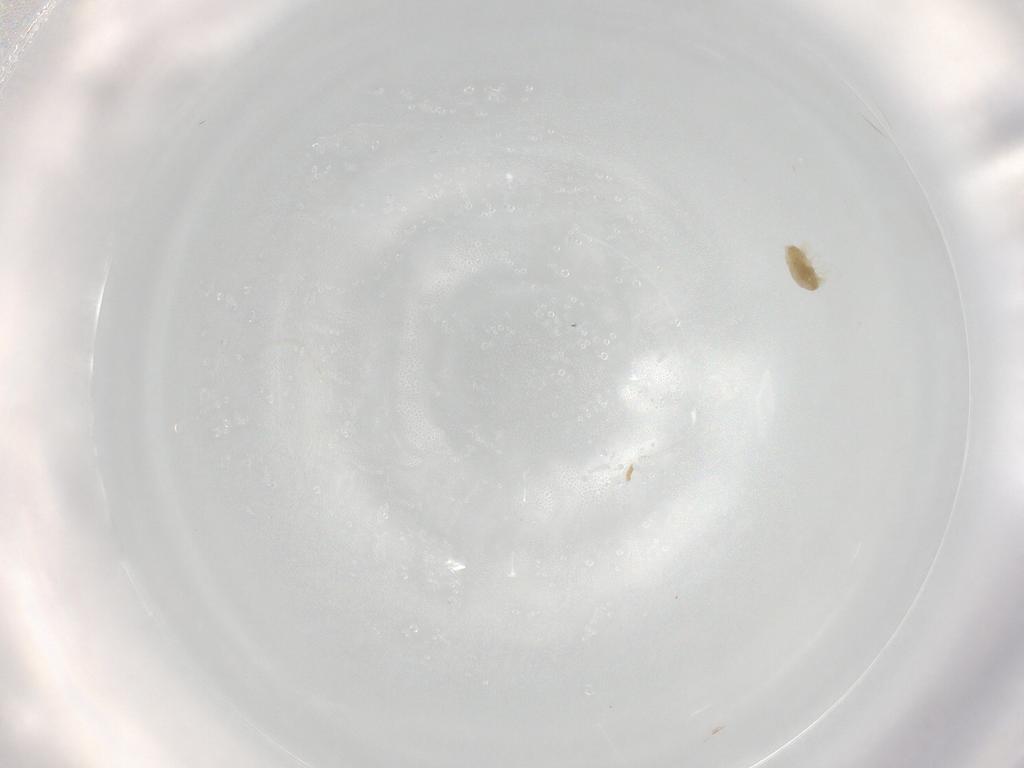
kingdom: Animalia
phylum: Arthropoda
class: Arachnida
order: Trombidiformes
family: Eupodidae
